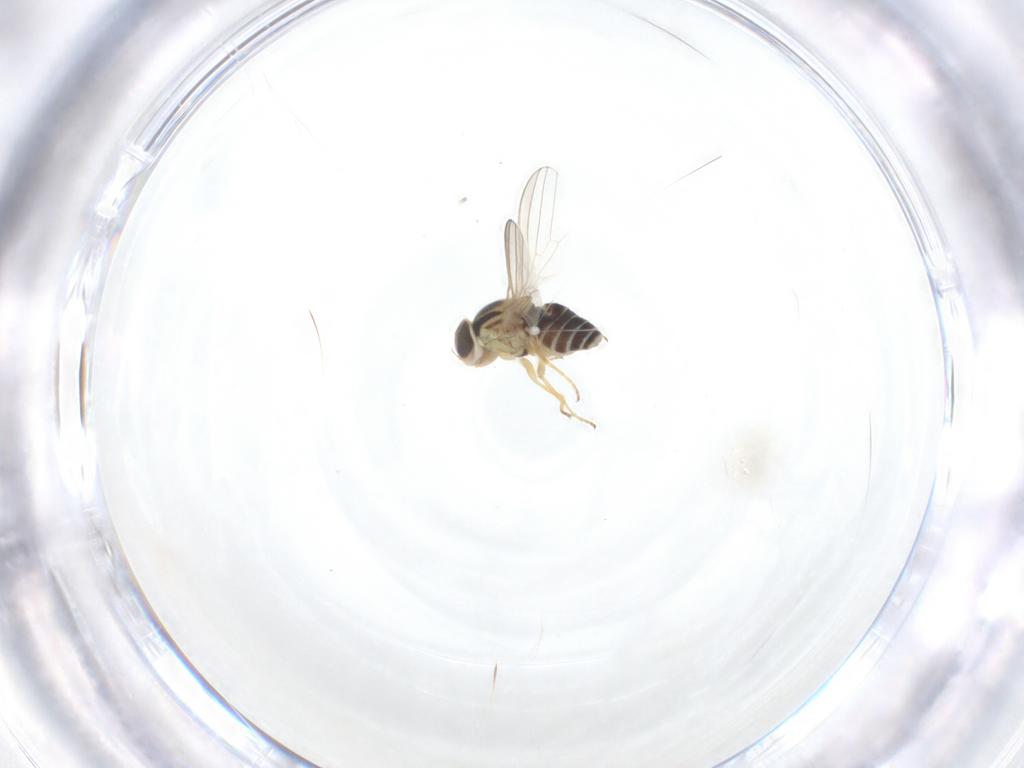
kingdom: Animalia
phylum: Arthropoda
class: Insecta
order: Diptera
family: Chyromyidae
